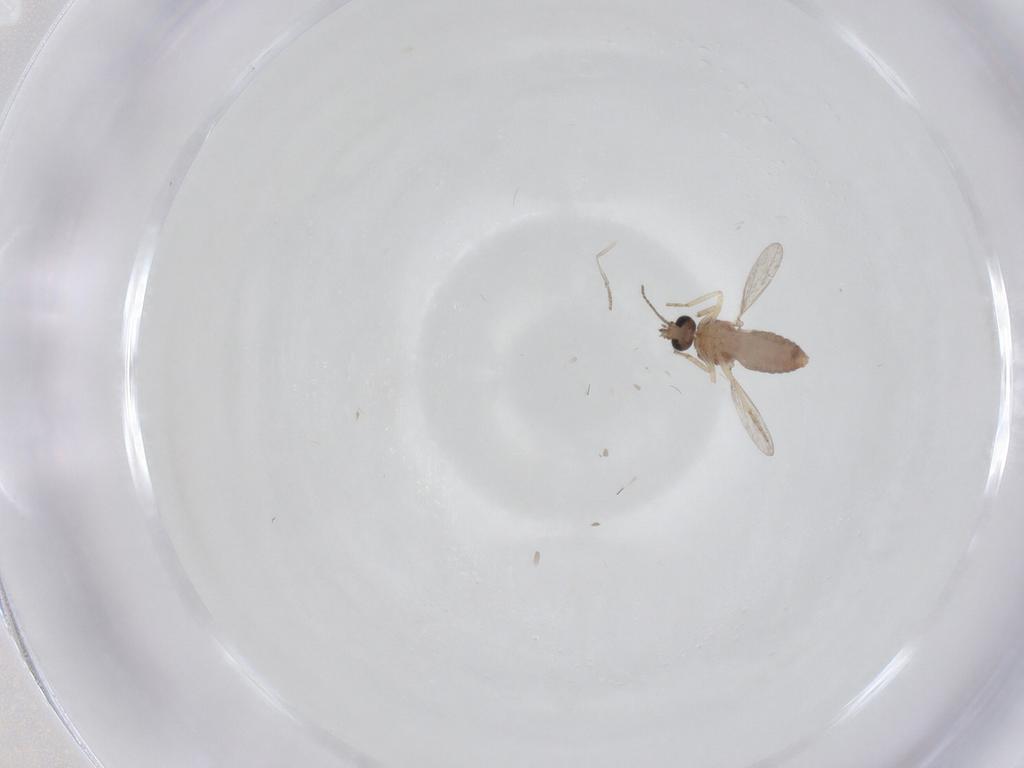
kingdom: Animalia
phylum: Arthropoda
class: Insecta
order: Diptera
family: Ceratopogonidae
